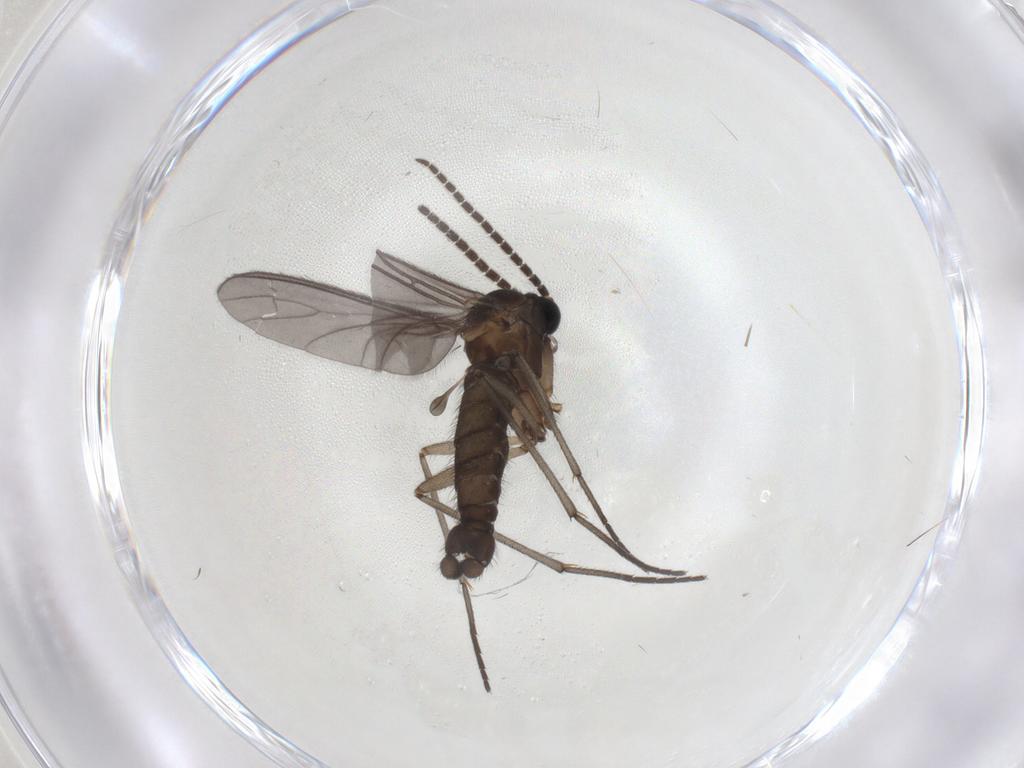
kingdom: Animalia
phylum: Arthropoda
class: Insecta
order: Diptera
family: Sciaridae
